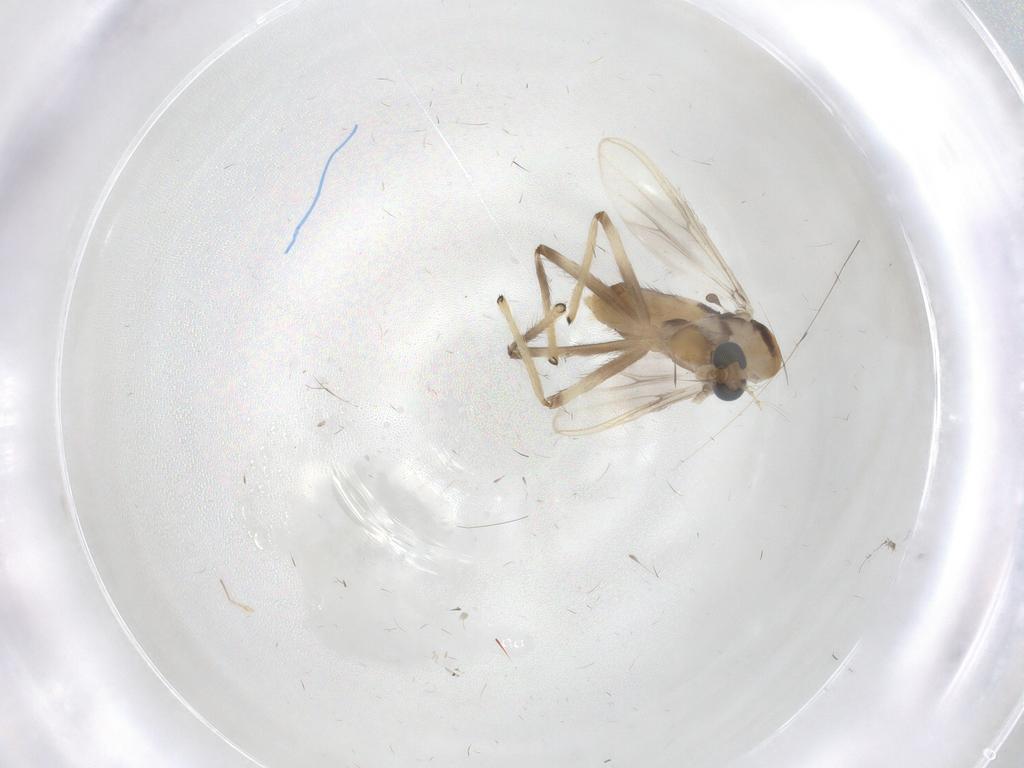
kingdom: Animalia
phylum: Arthropoda
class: Insecta
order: Diptera
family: Chironomidae
